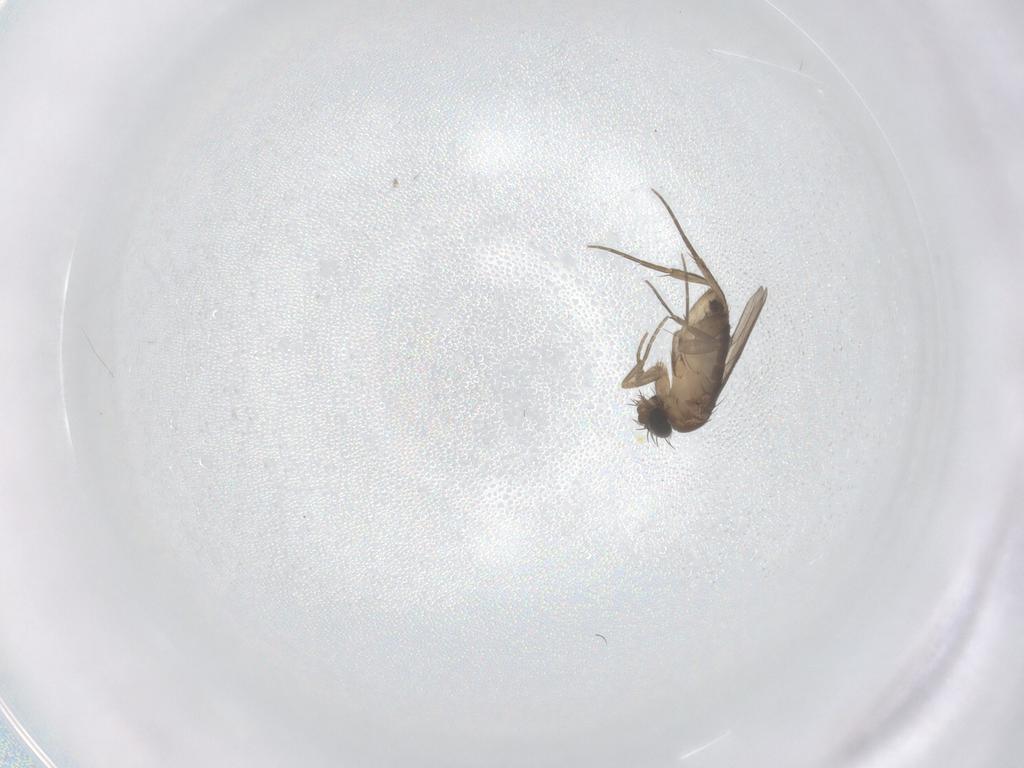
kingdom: Animalia
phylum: Arthropoda
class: Insecta
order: Diptera
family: Phoridae
